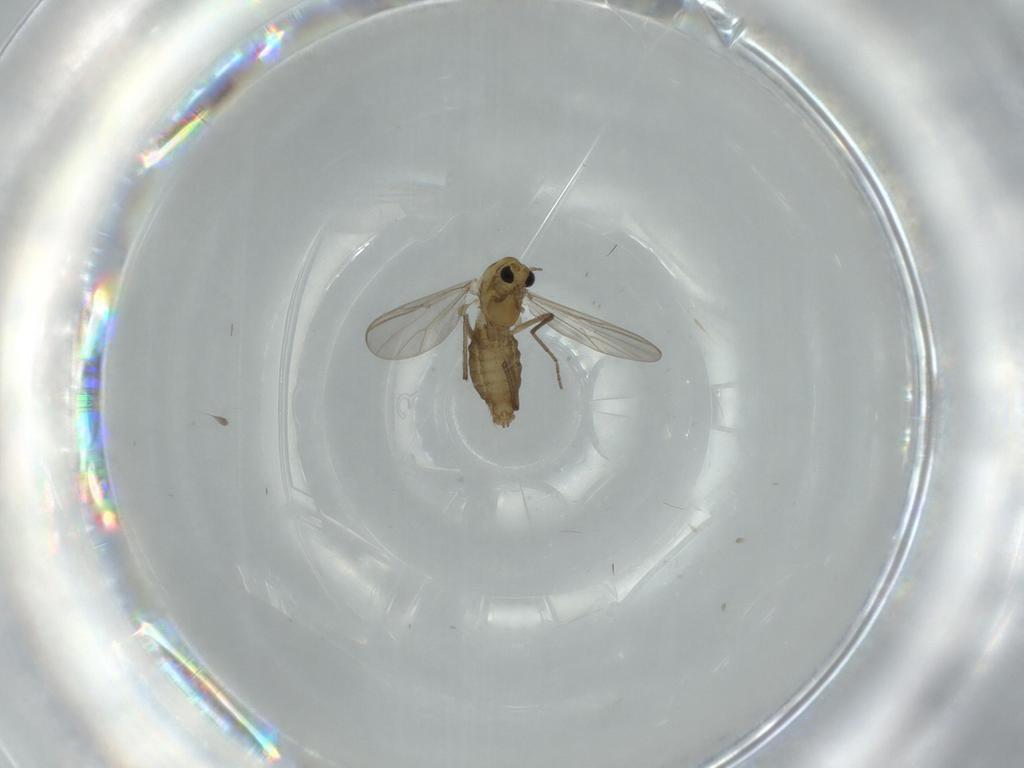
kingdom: Animalia
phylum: Arthropoda
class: Insecta
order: Diptera
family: Chironomidae
